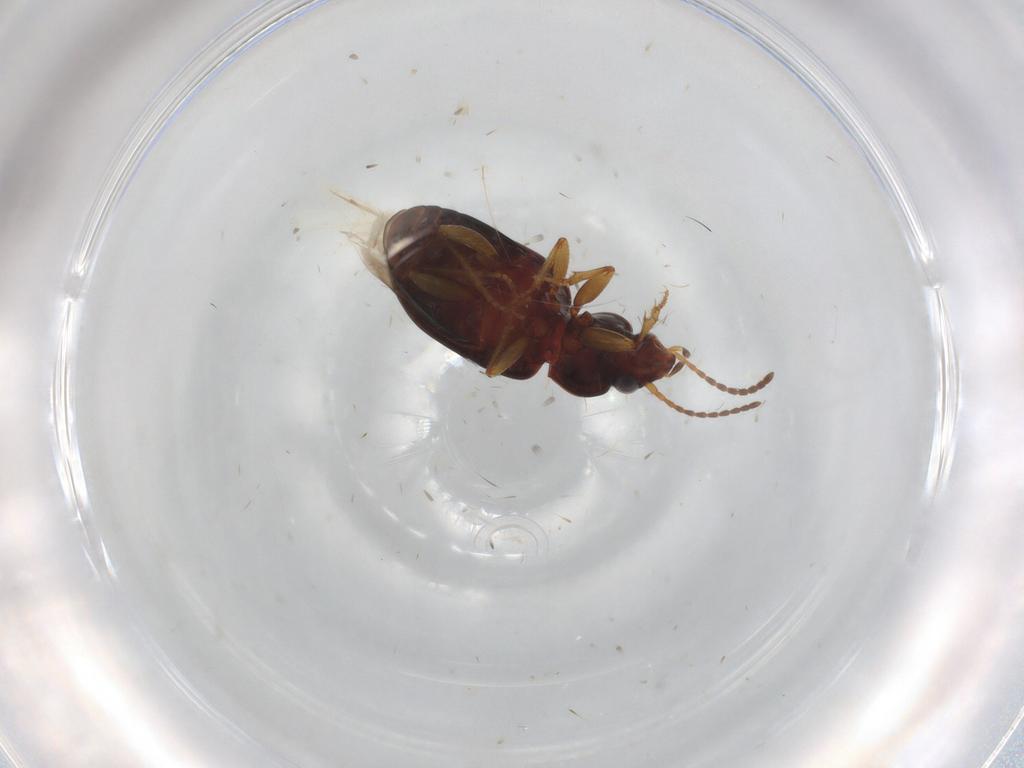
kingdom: Animalia
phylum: Arthropoda
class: Insecta
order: Coleoptera
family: Carabidae
